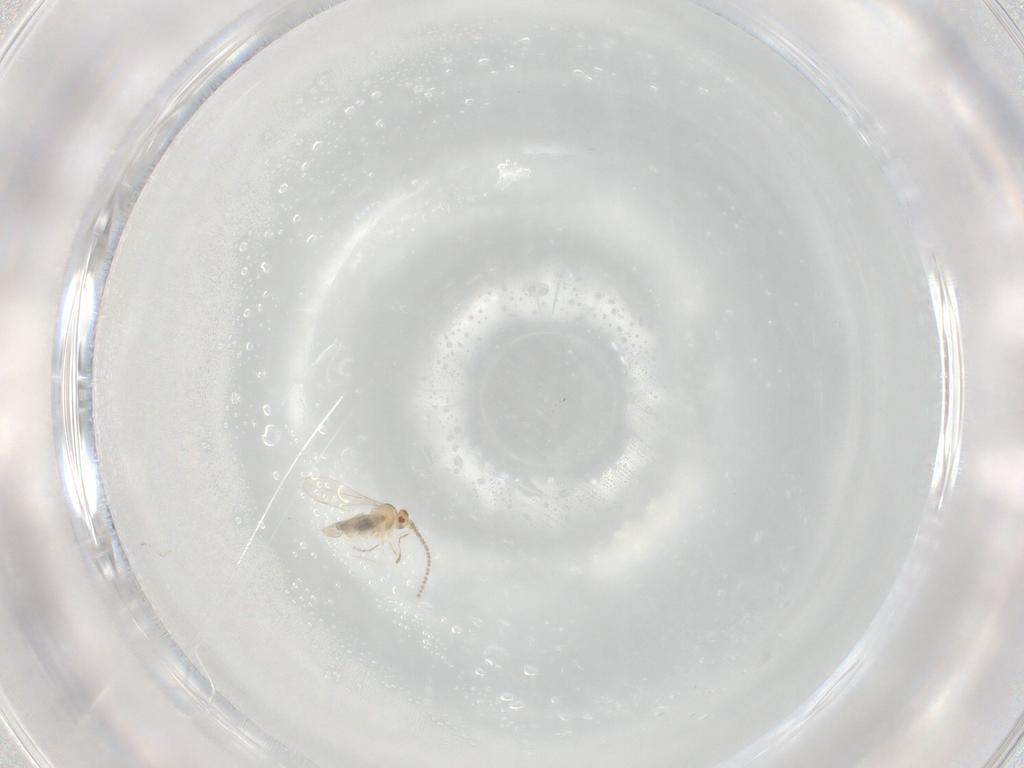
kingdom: Animalia
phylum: Arthropoda
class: Insecta
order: Diptera
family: Cecidomyiidae
